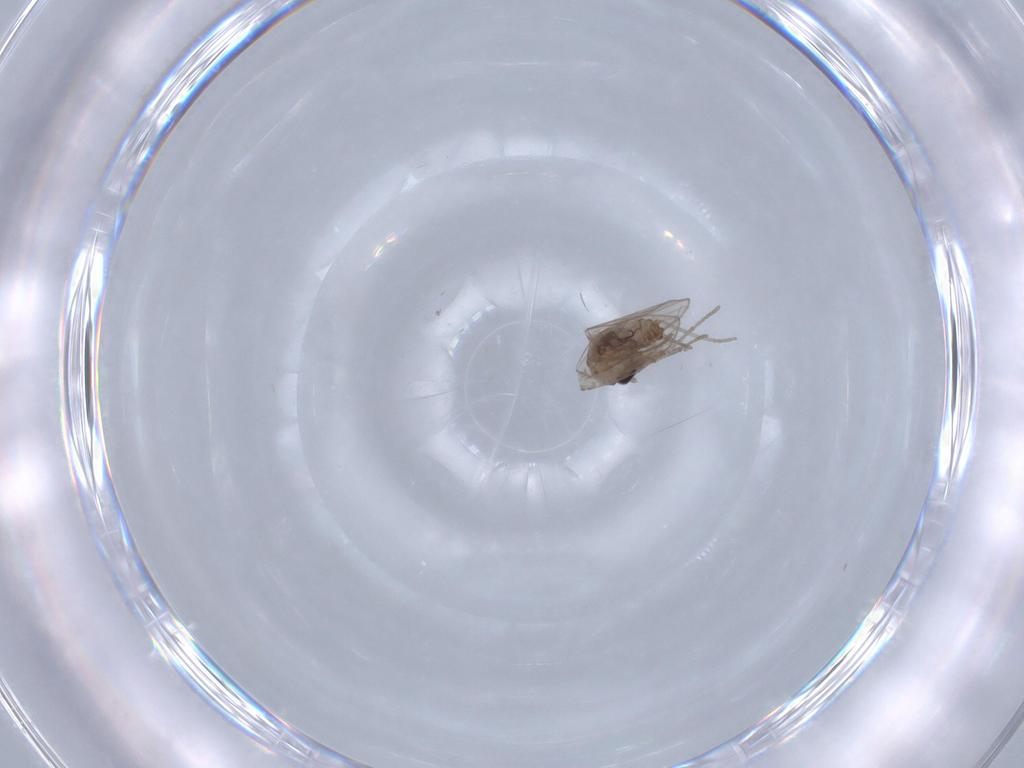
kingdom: Animalia
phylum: Arthropoda
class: Insecta
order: Diptera
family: Psychodidae
